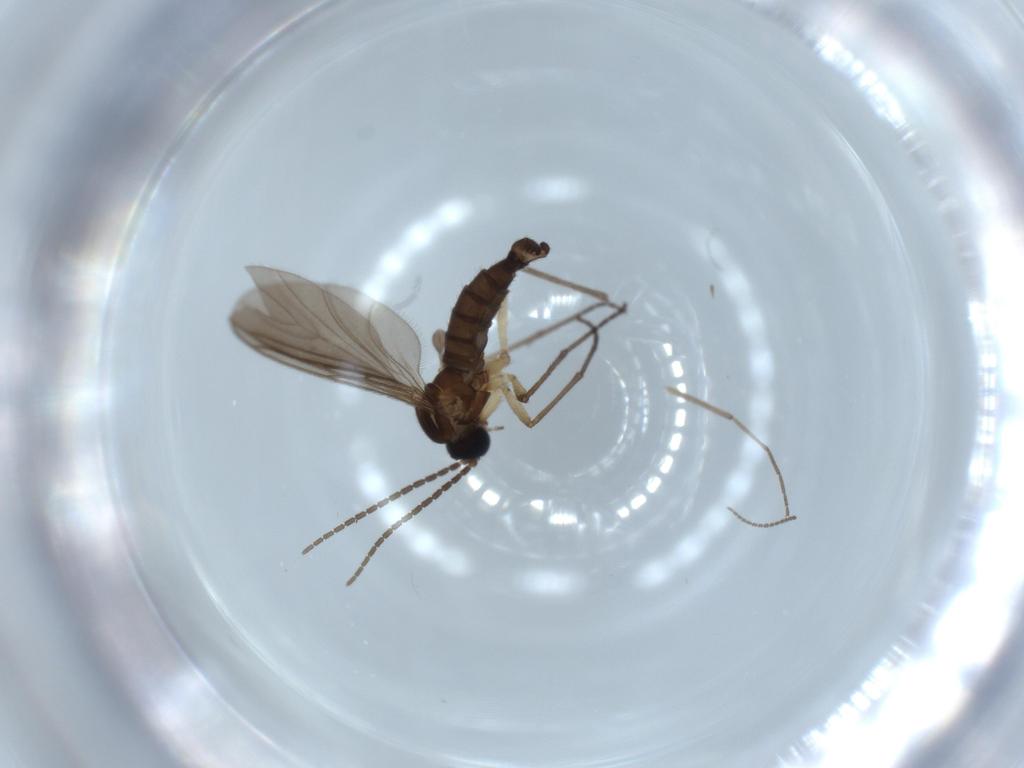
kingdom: Animalia
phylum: Arthropoda
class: Insecta
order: Diptera
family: Sciaridae
